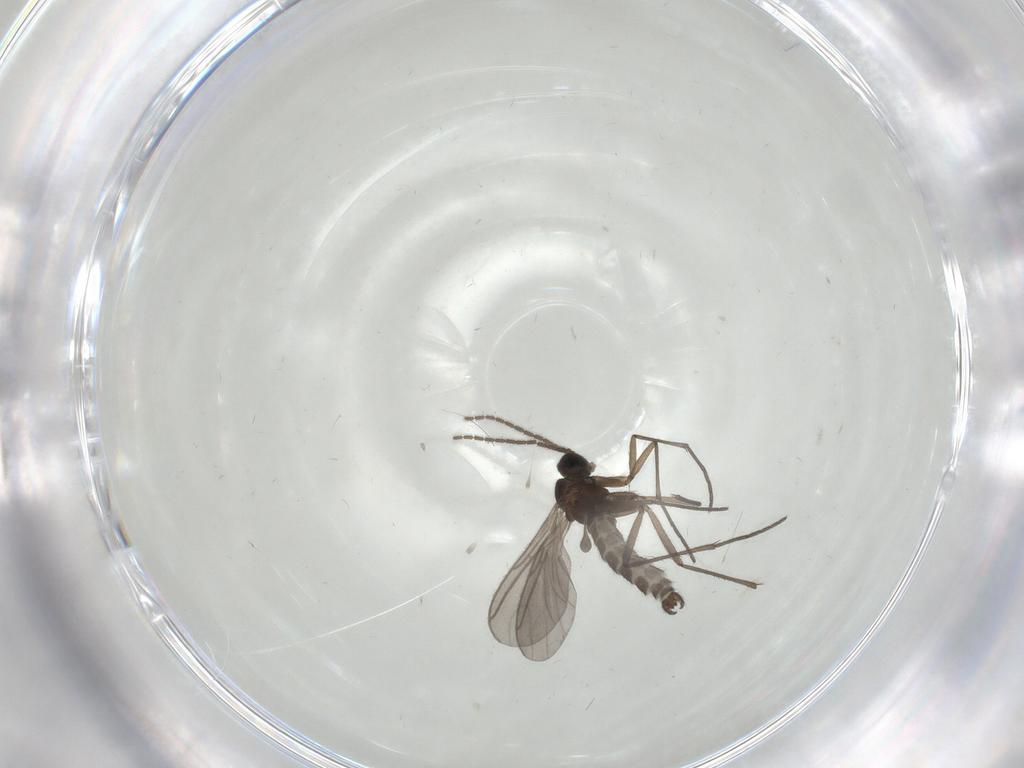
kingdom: Animalia
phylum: Arthropoda
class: Insecta
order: Diptera
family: Sciaridae
